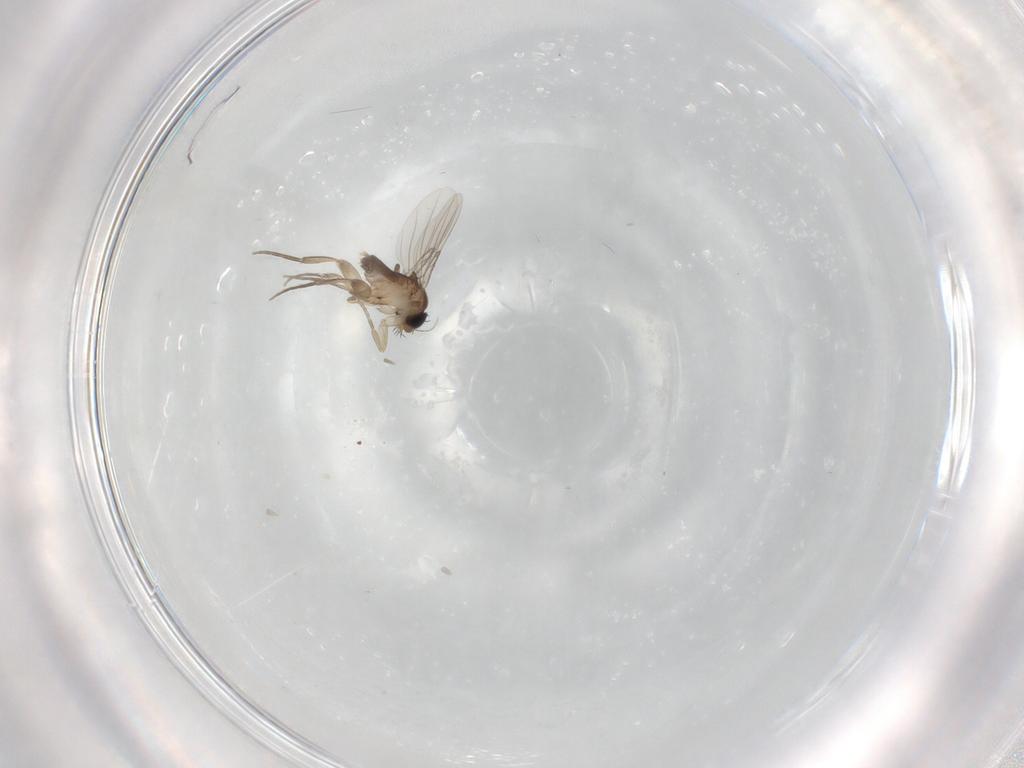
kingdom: Animalia
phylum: Arthropoda
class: Insecta
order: Diptera
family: Phoridae
